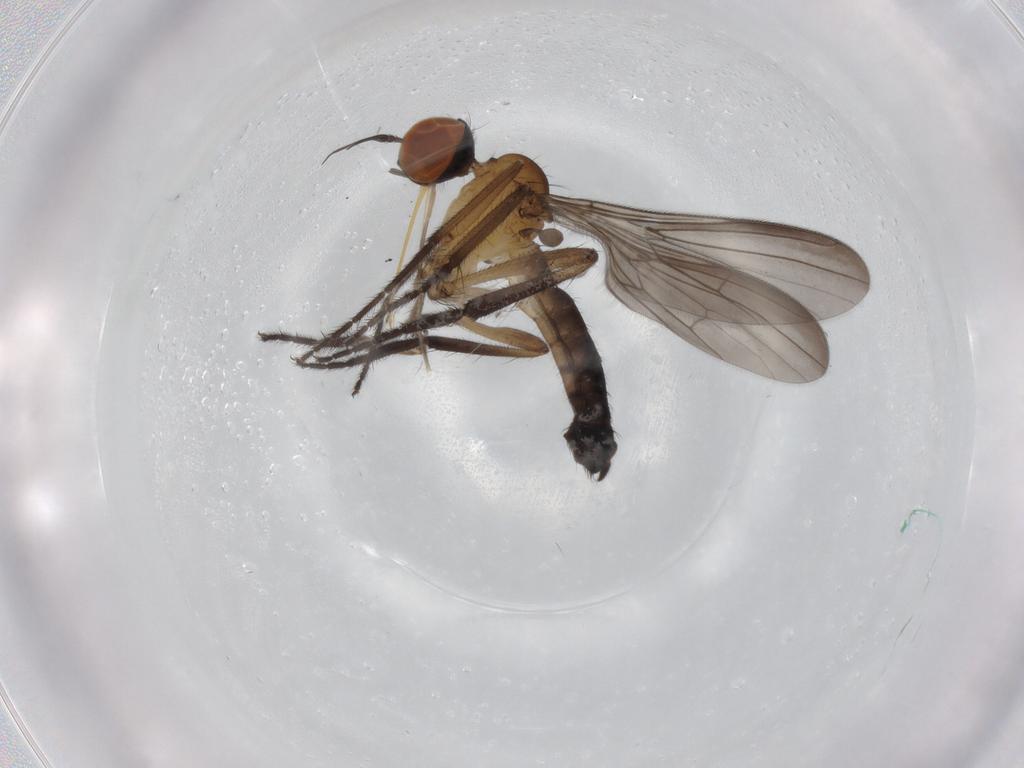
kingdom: Animalia
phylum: Arthropoda
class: Insecta
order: Diptera
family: Empididae
